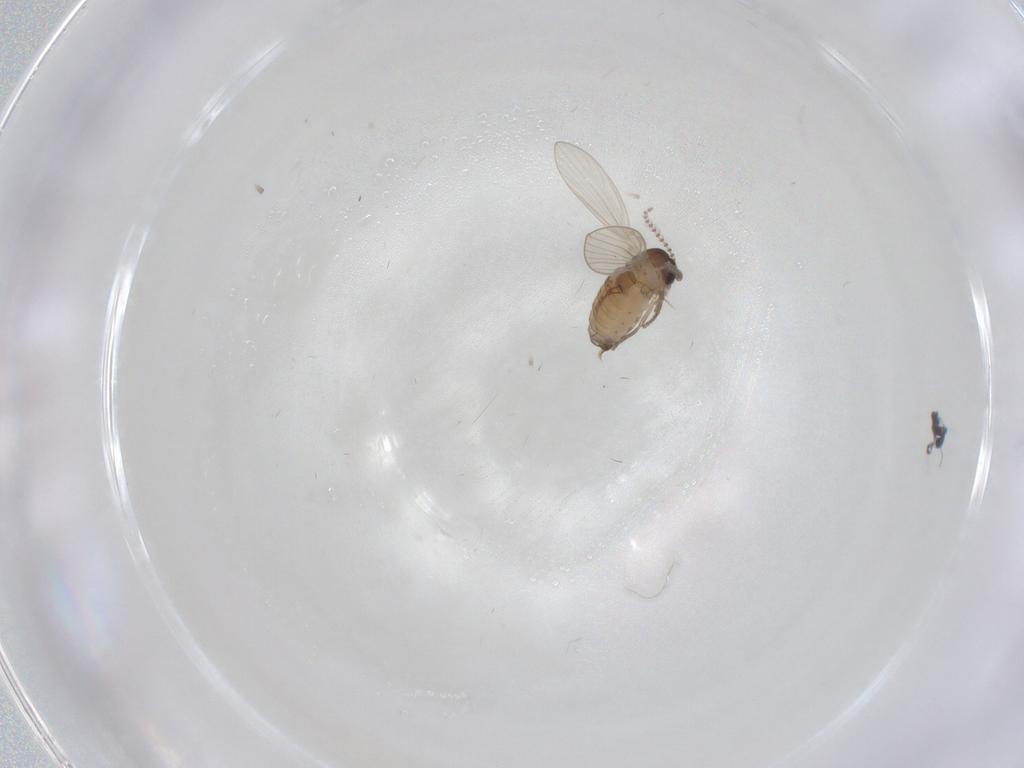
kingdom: Animalia
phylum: Arthropoda
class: Insecta
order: Diptera
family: Psychodidae
